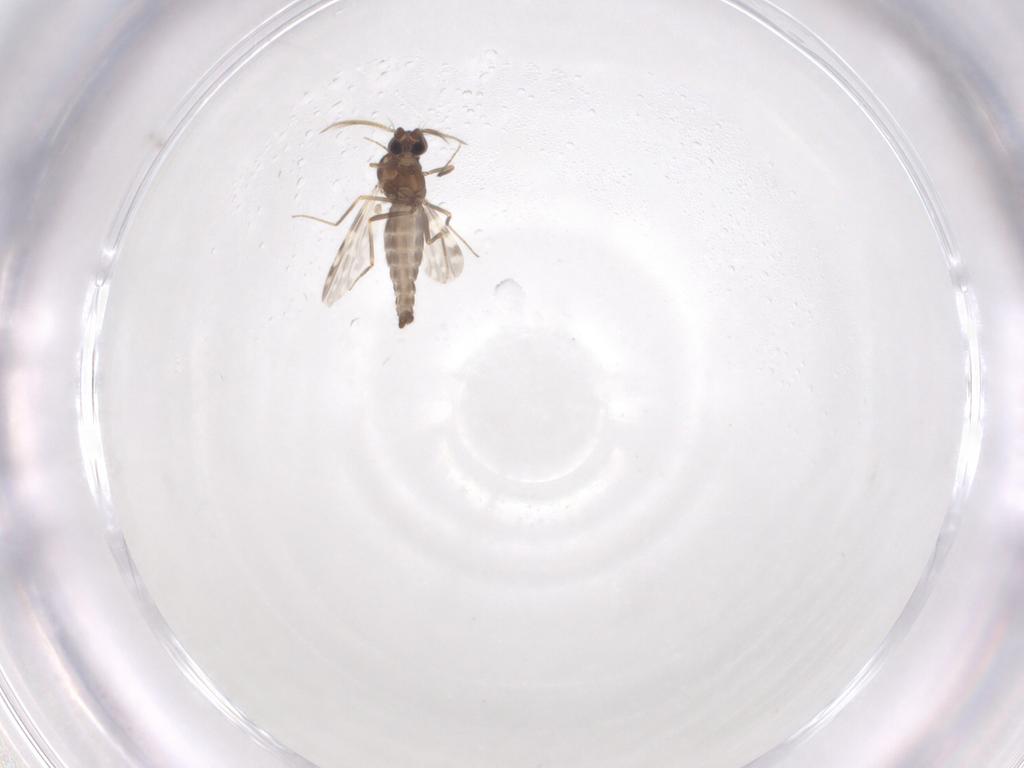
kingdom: Animalia
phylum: Arthropoda
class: Insecta
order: Diptera
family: Ceratopogonidae
